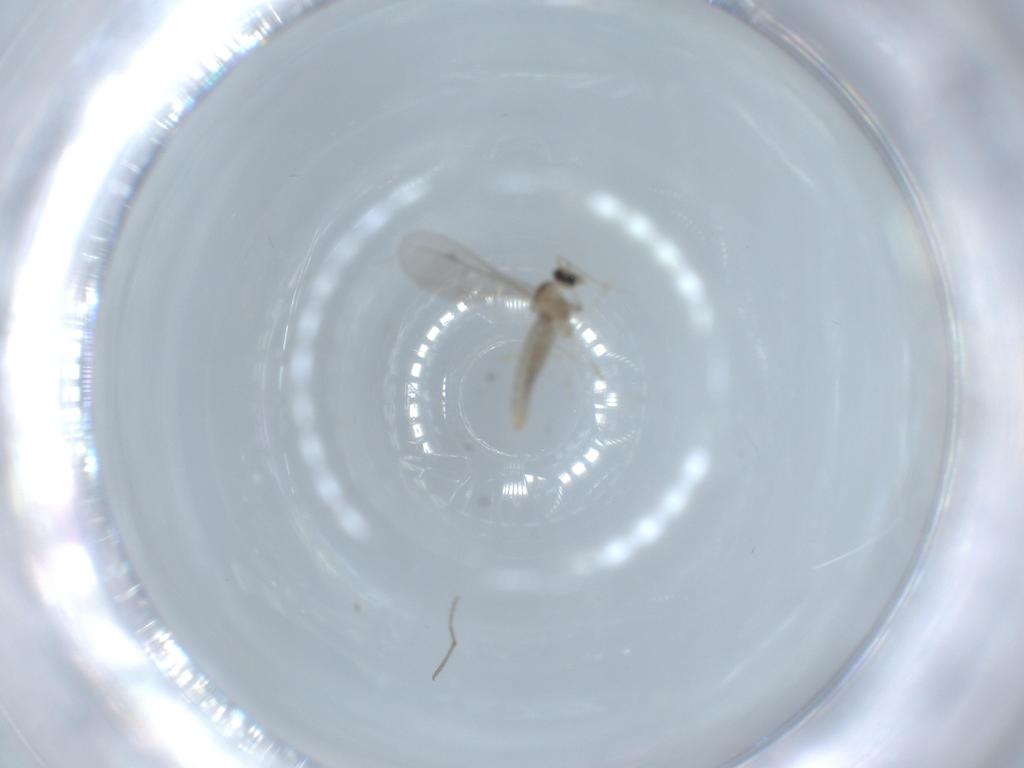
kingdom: Animalia
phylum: Arthropoda
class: Insecta
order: Diptera
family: Cecidomyiidae
